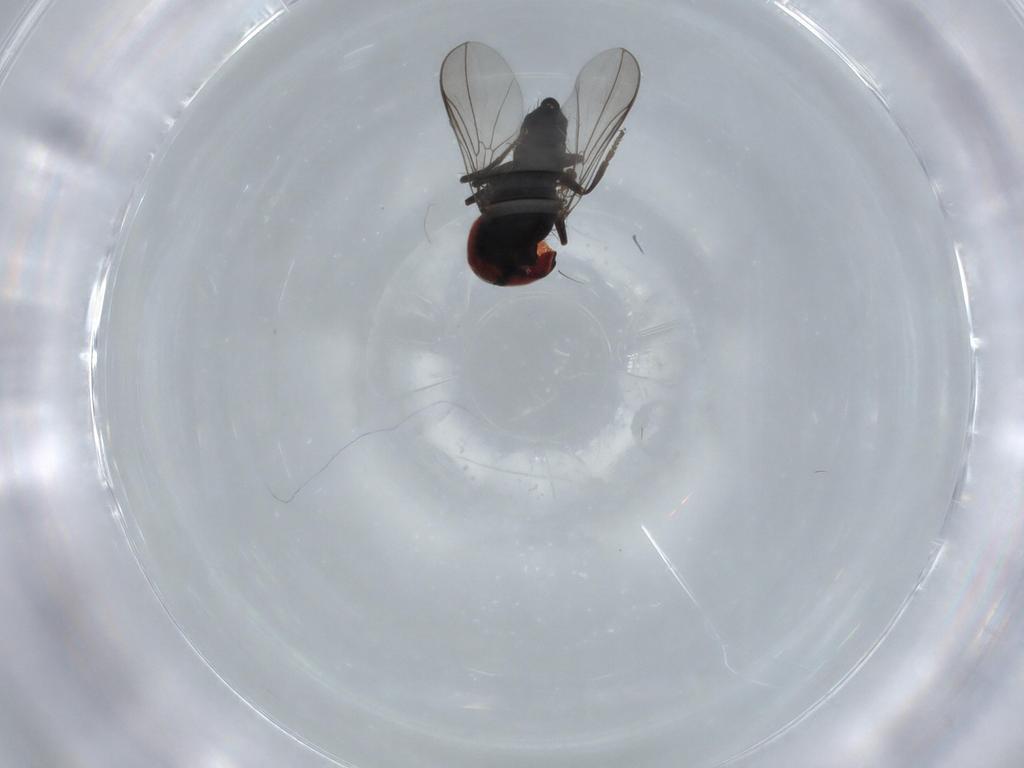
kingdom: Animalia
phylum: Arthropoda
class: Insecta
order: Diptera
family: Pipunculidae
